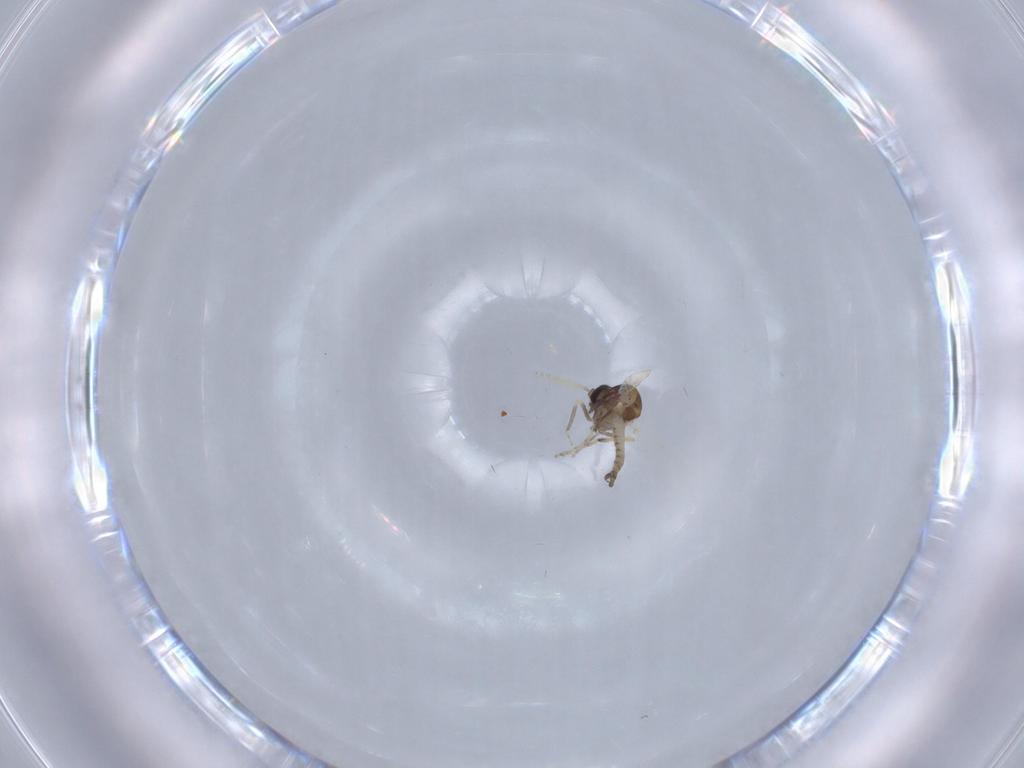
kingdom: Animalia
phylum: Arthropoda
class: Insecta
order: Diptera
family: Ceratopogonidae
